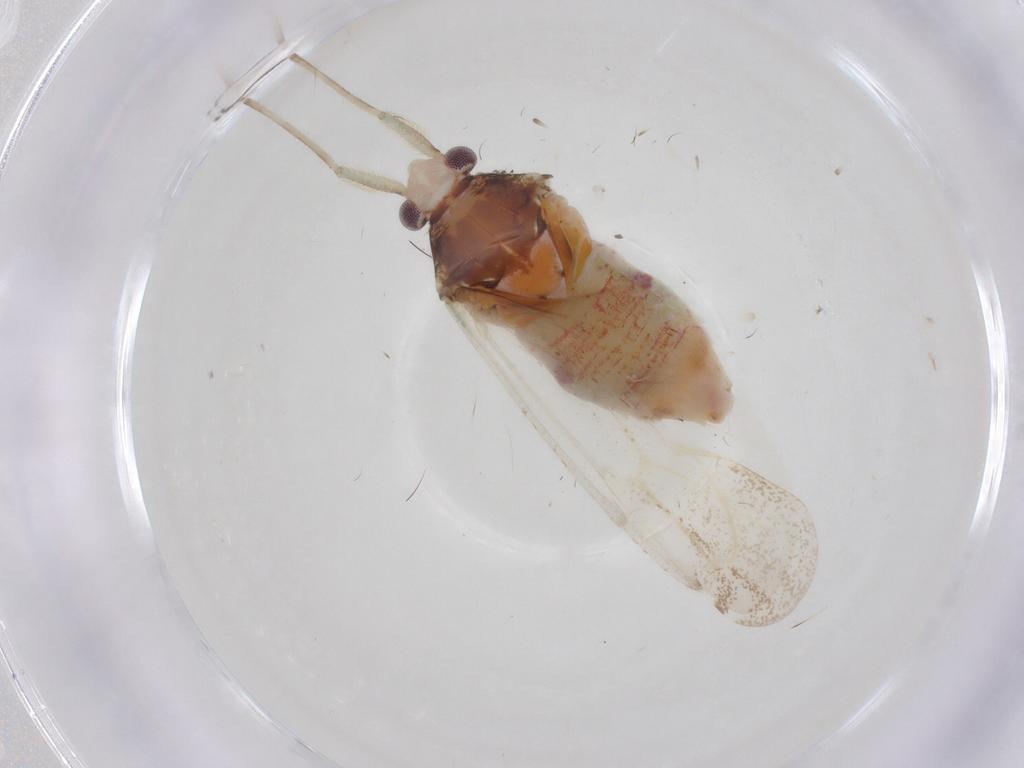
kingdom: Animalia
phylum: Arthropoda
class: Insecta
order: Hemiptera
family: Miridae
